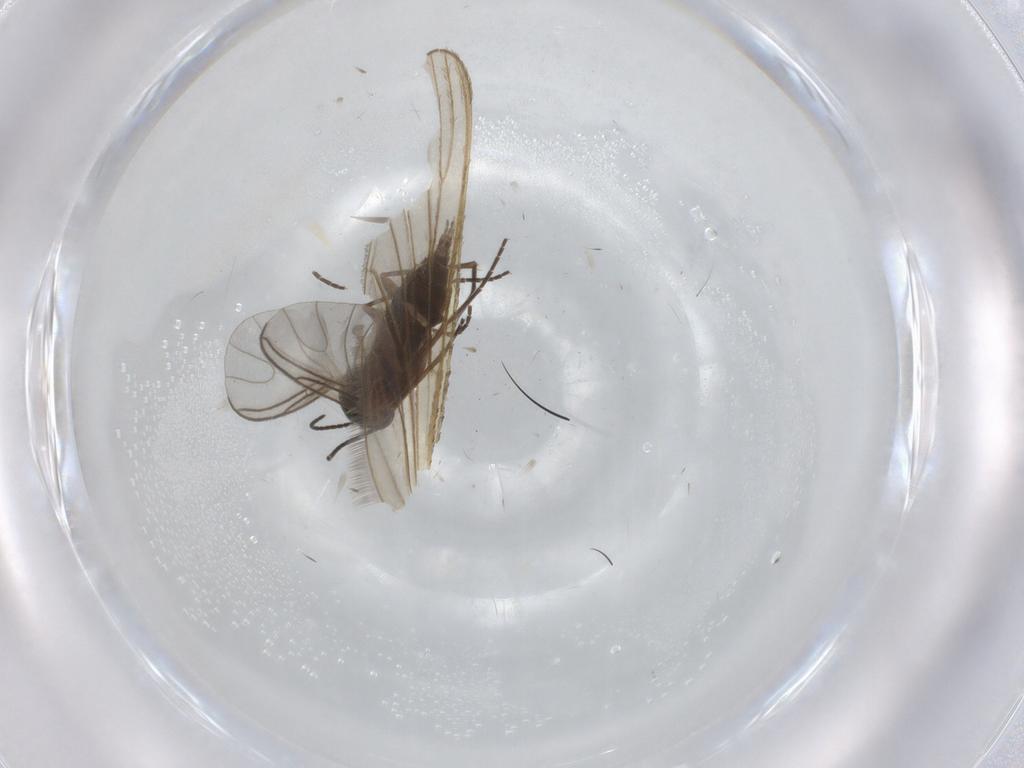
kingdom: Animalia
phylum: Arthropoda
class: Insecta
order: Diptera
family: Sciaridae
